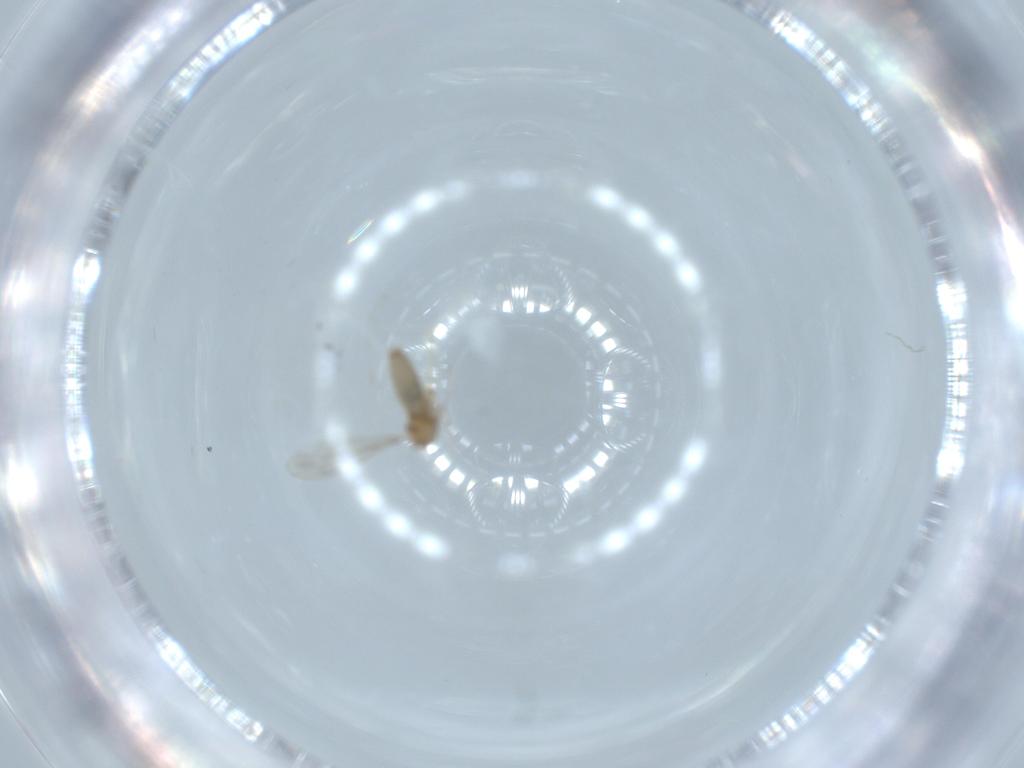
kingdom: Animalia
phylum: Arthropoda
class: Insecta
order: Diptera
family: Cecidomyiidae
